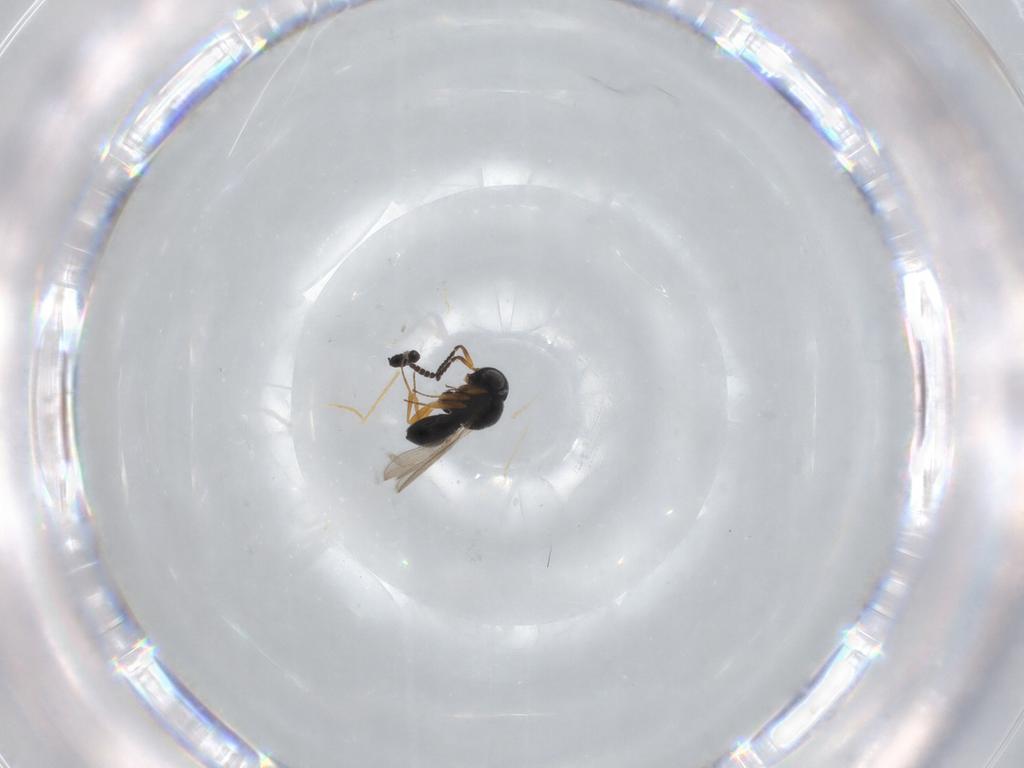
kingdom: Animalia
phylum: Arthropoda
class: Insecta
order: Hymenoptera
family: Scelionidae
